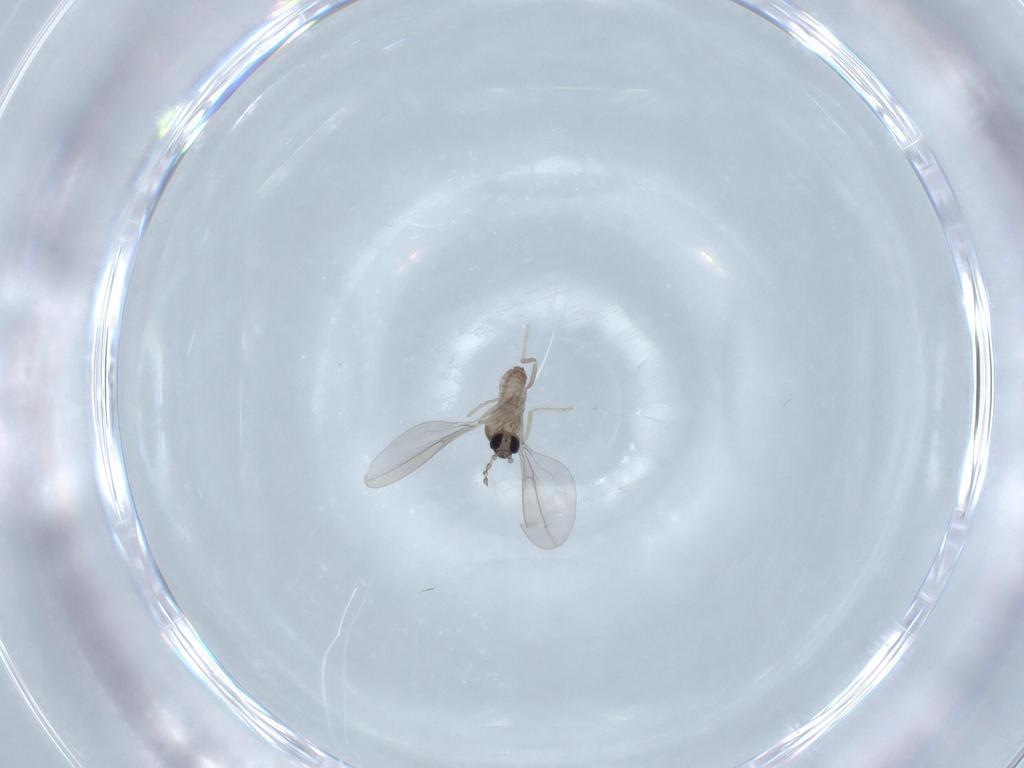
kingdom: Animalia
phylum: Arthropoda
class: Insecta
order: Diptera
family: Cecidomyiidae
